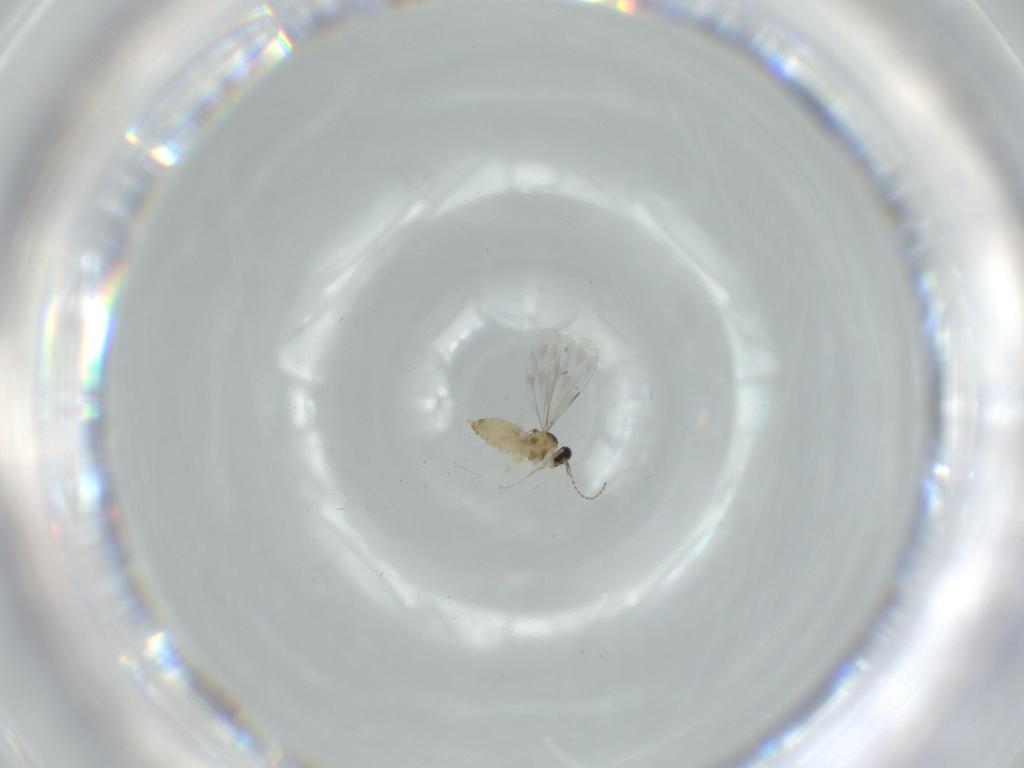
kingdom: Animalia
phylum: Arthropoda
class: Insecta
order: Diptera
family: Cecidomyiidae
